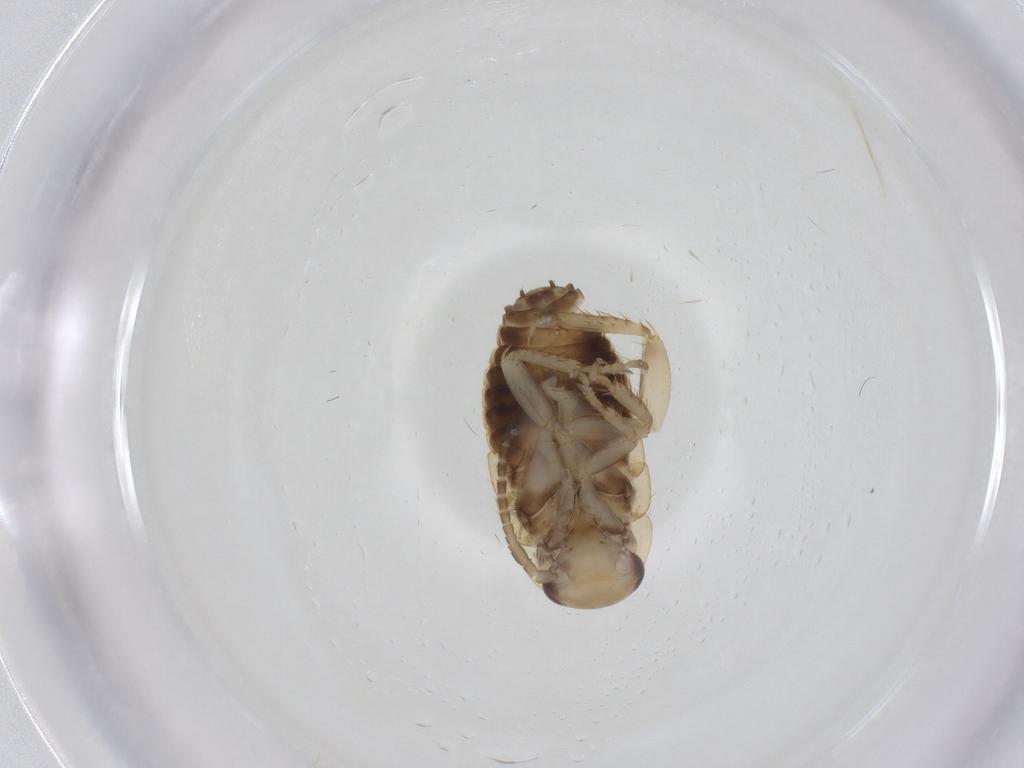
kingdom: Animalia
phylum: Arthropoda
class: Insecta
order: Blattodea
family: Ectobiidae
